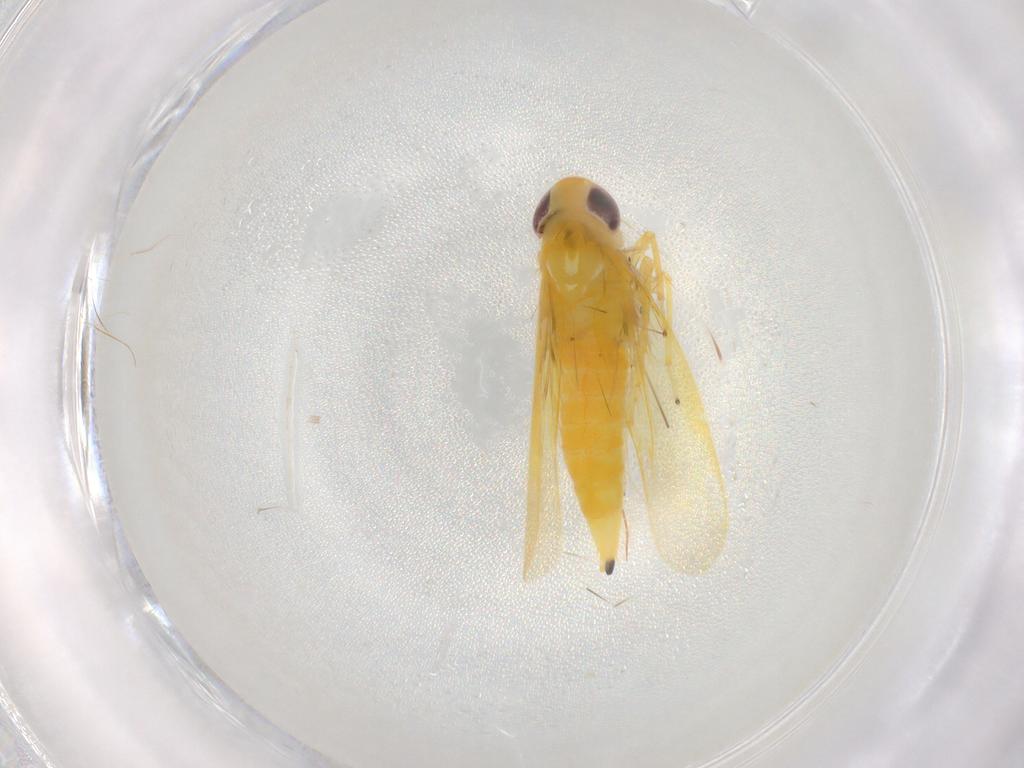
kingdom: Animalia
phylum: Arthropoda
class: Insecta
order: Hemiptera
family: Cicadellidae
